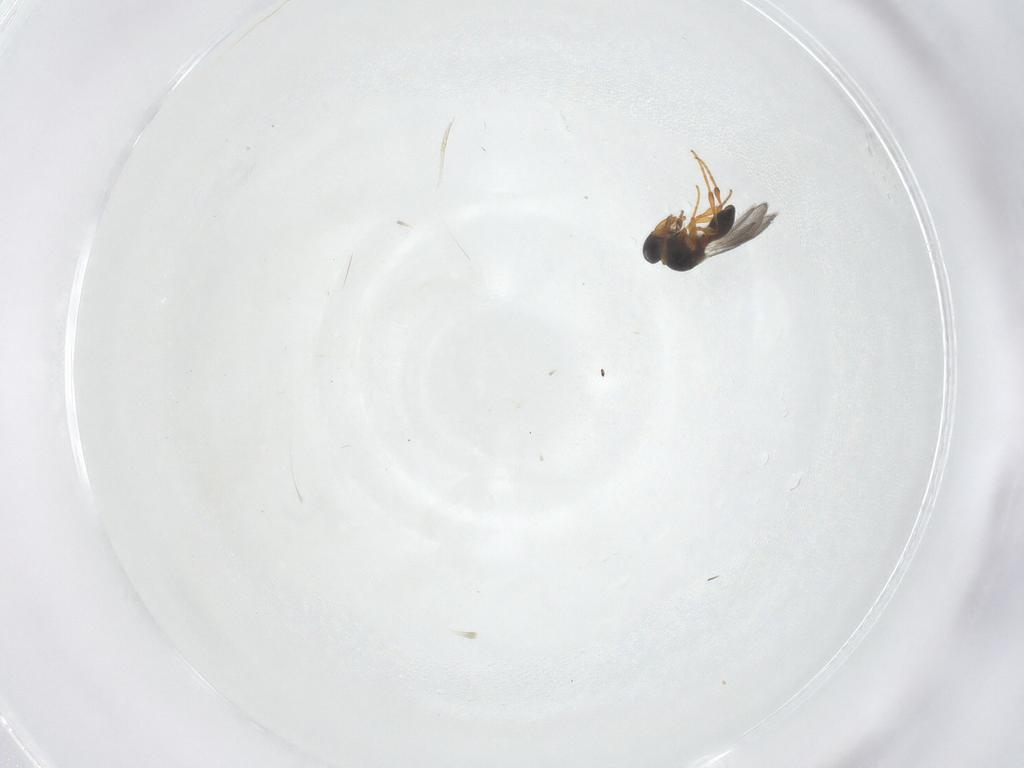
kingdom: Animalia
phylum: Arthropoda
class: Insecta
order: Hymenoptera
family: Platygastridae
